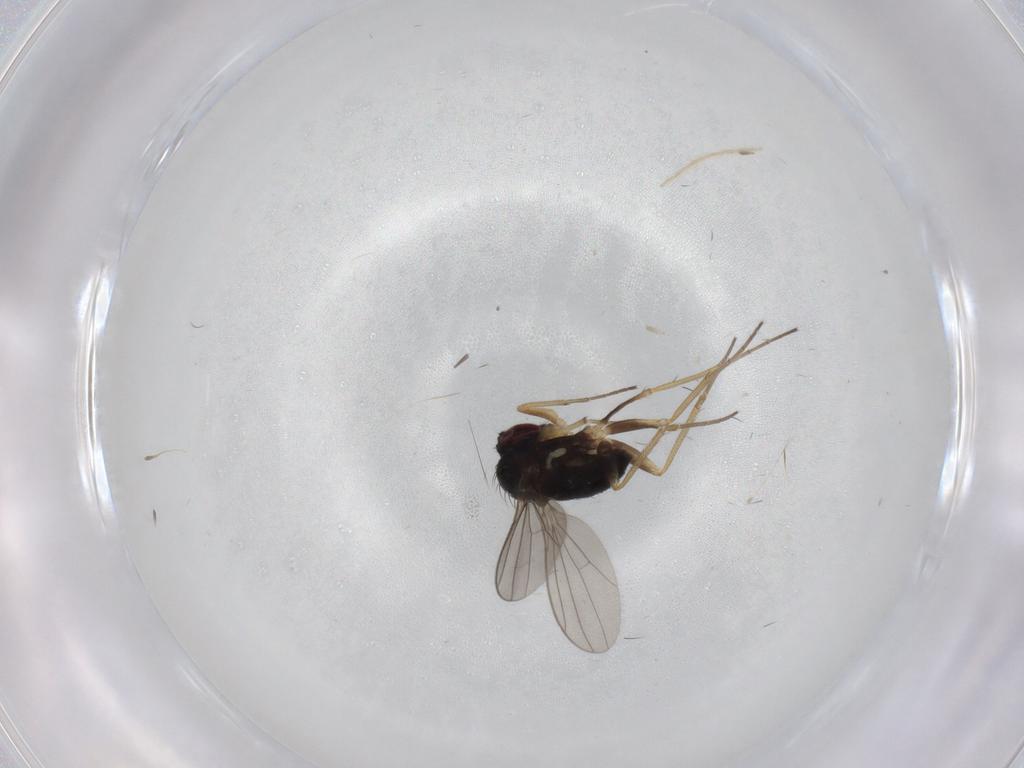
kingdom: Animalia
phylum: Arthropoda
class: Insecta
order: Diptera
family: Dolichopodidae
